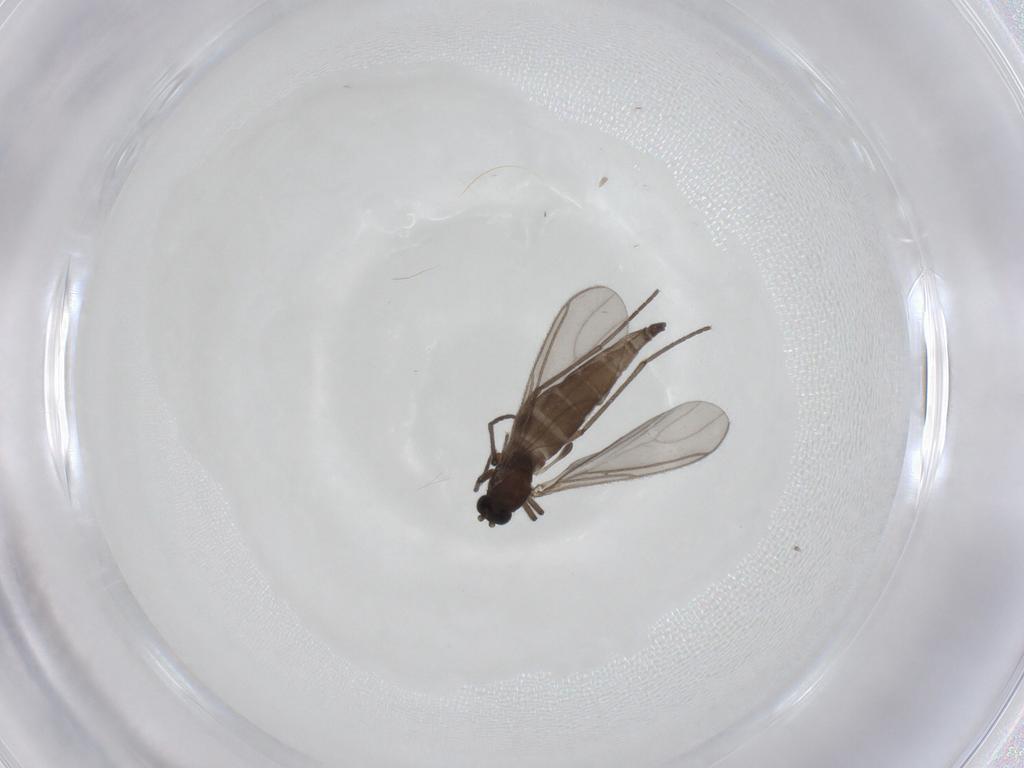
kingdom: Animalia
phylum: Arthropoda
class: Insecta
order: Diptera
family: Sciaridae
